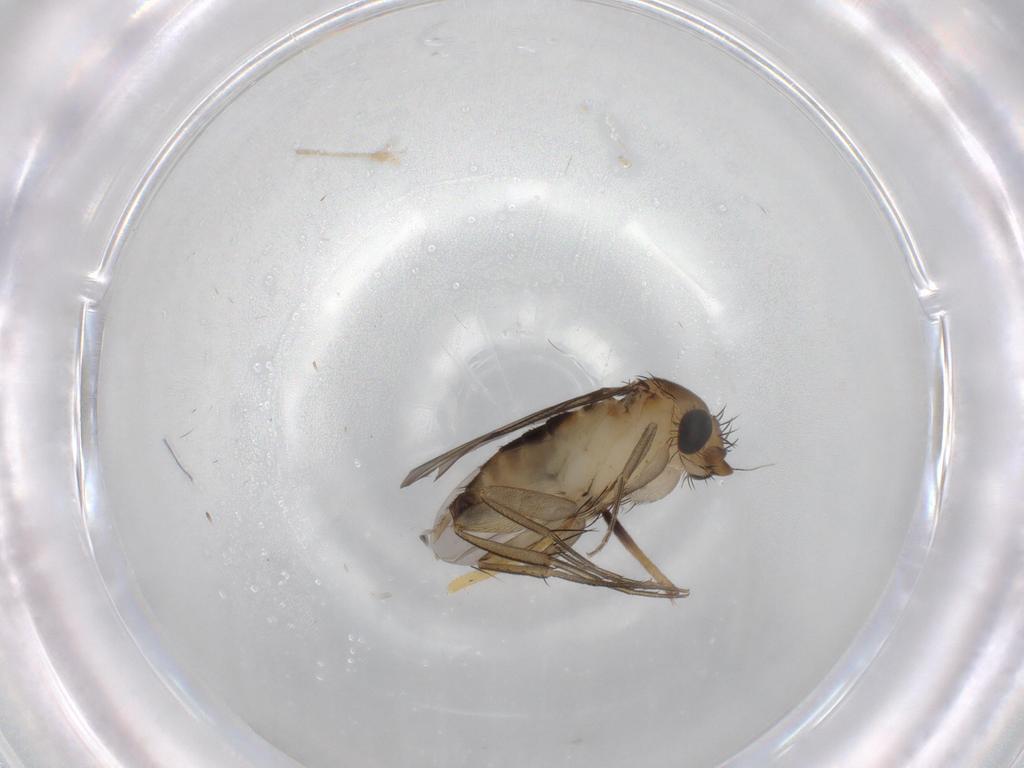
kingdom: Animalia
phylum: Arthropoda
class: Insecta
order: Diptera
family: Phoridae
